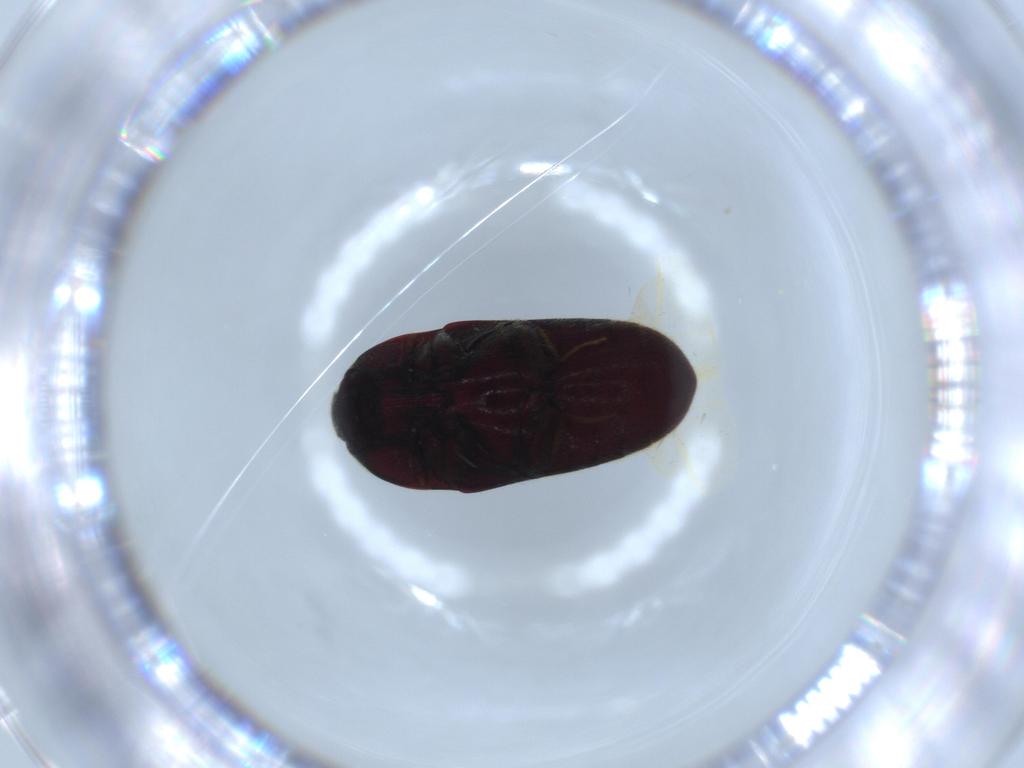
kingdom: Animalia
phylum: Arthropoda
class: Insecta
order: Coleoptera
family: Throscidae
